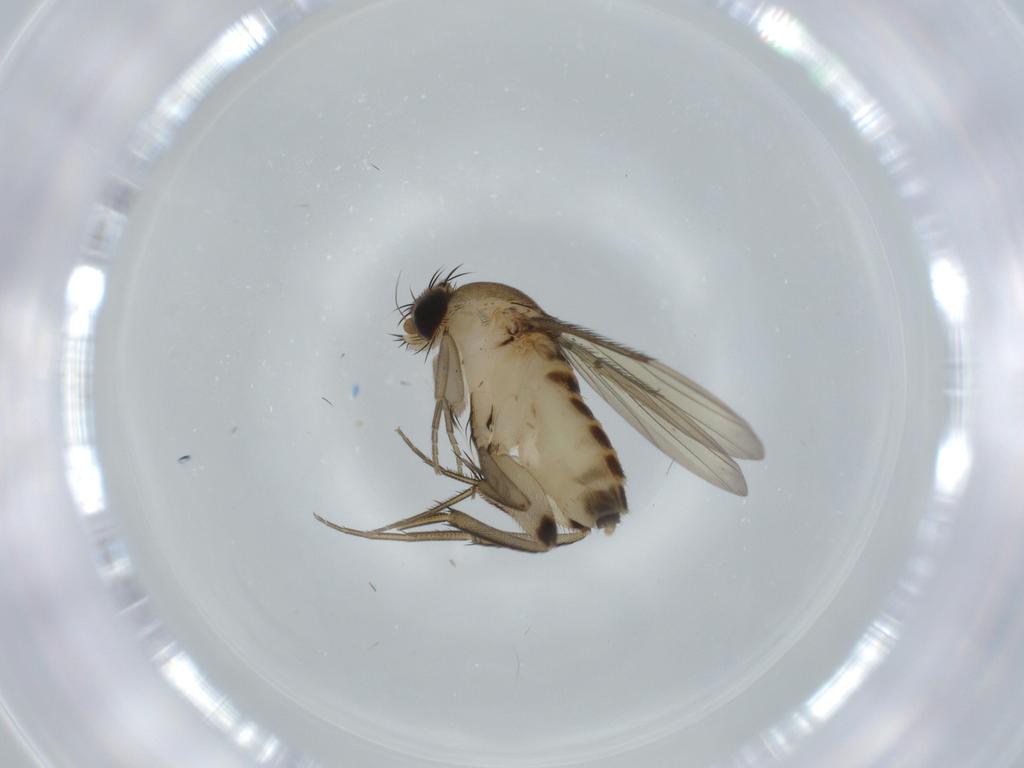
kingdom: Animalia
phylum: Arthropoda
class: Insecta
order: Diptera
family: Phoridae
